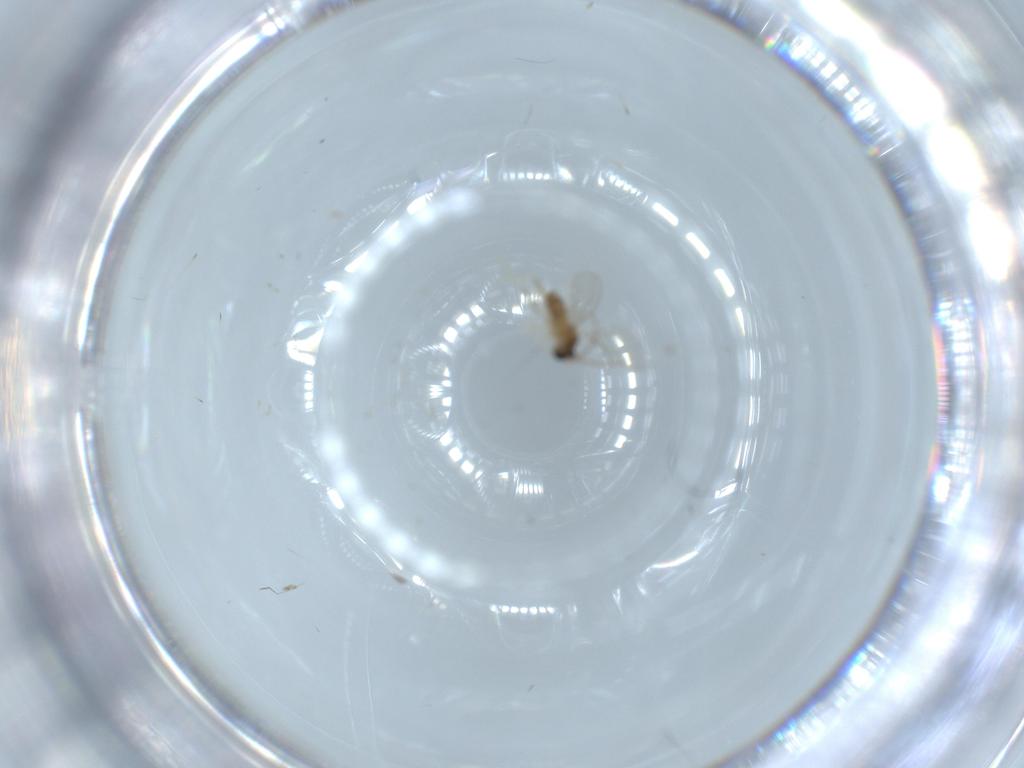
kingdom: Animalia
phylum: Arthropoda
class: Insecta
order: Diptera
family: Cecidomyiidae
